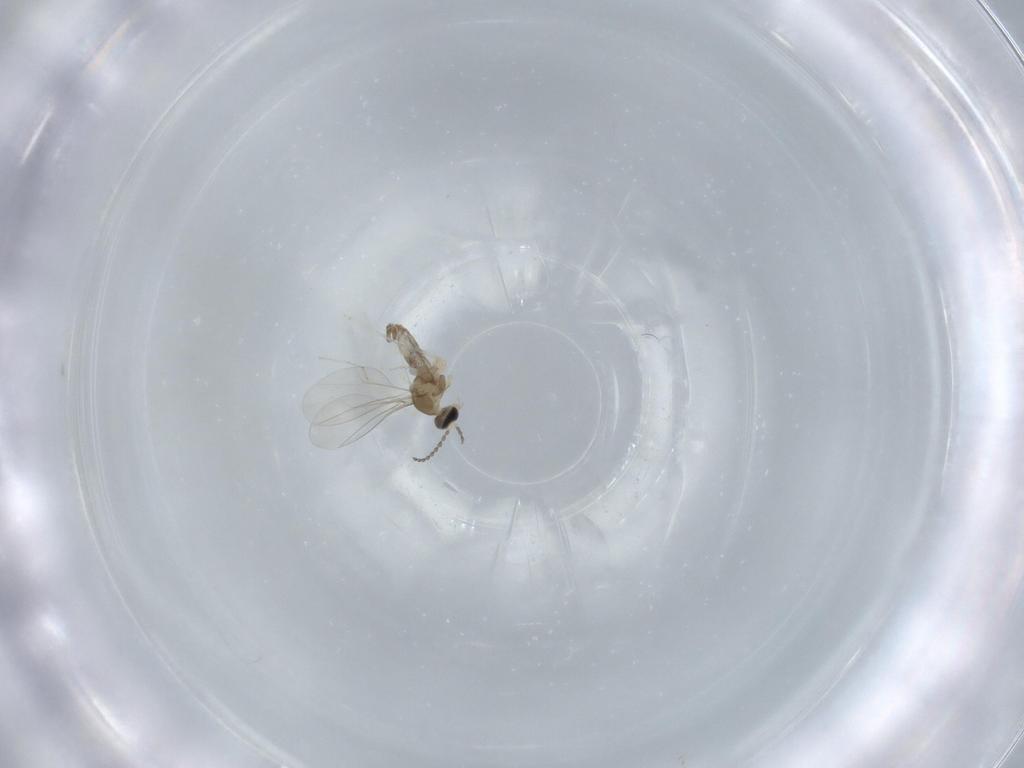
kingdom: Animalia
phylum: Arthropoda
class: Insecta
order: Diptera
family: Cecidomyiidae
